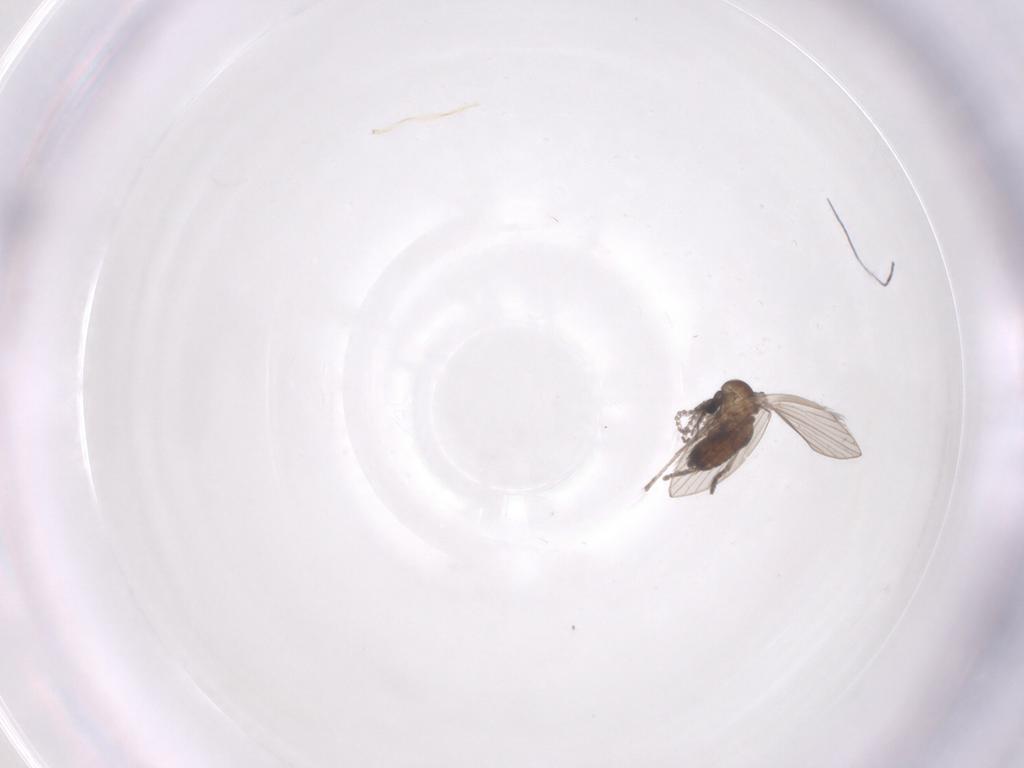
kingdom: Animalia
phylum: Arthropoda
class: Insecta
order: Diptera
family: Psychodidae
